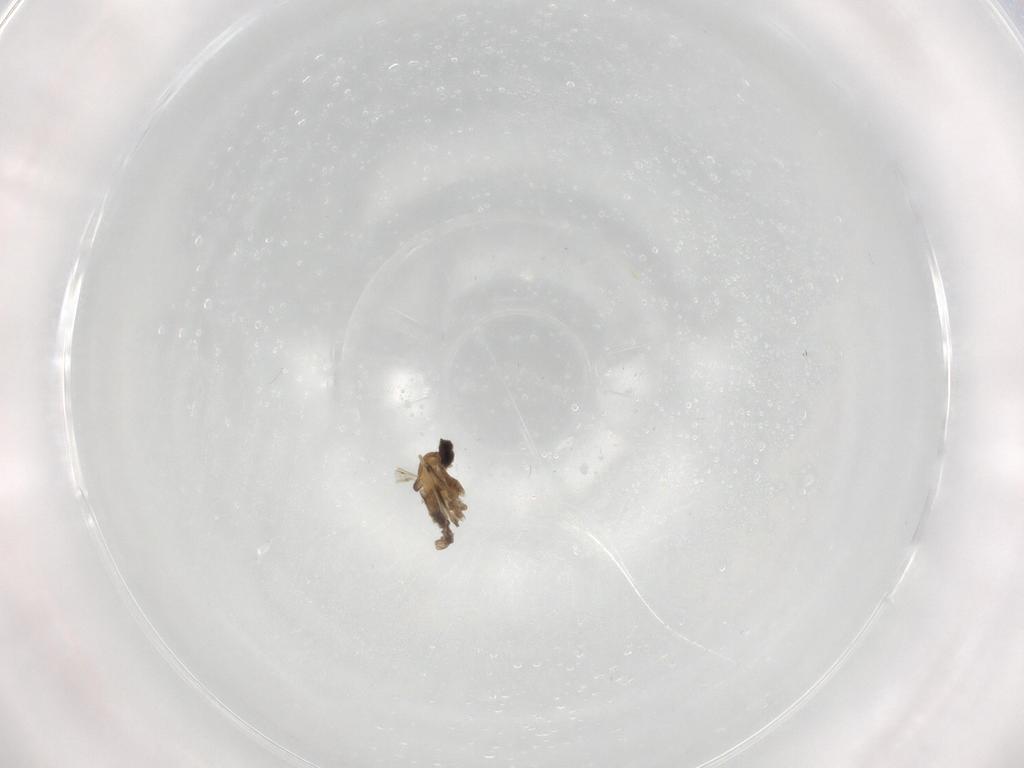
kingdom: Animalia
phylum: Arthropoda
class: Insecta
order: Diptera
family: Cecidomyiidae
